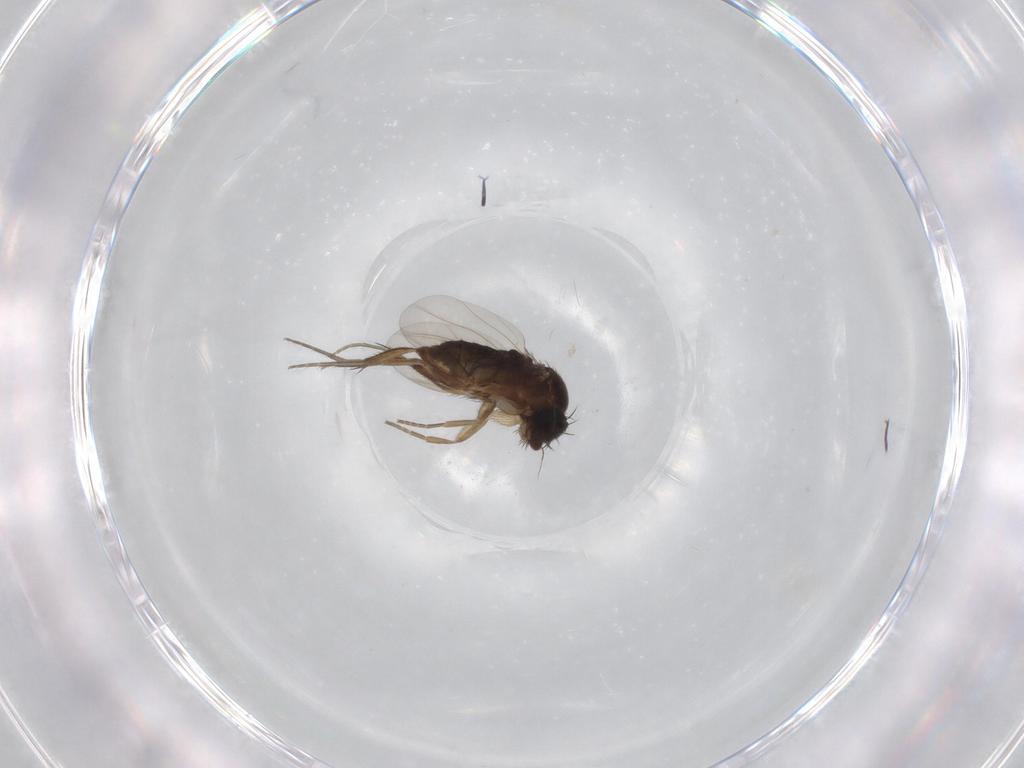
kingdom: Animalia
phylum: Arthropoda
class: Insecta
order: Diptera
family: Phoridae
